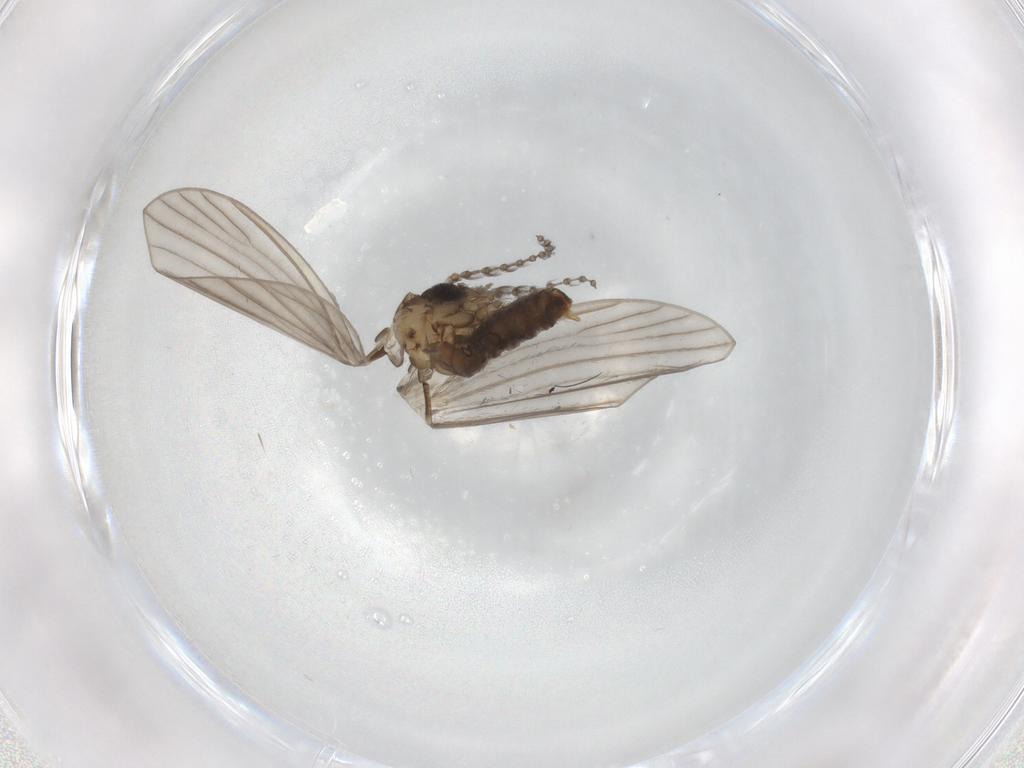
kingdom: Animalia
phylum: Arthropoda
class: Insecta
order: Diptera
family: Psychodidae
